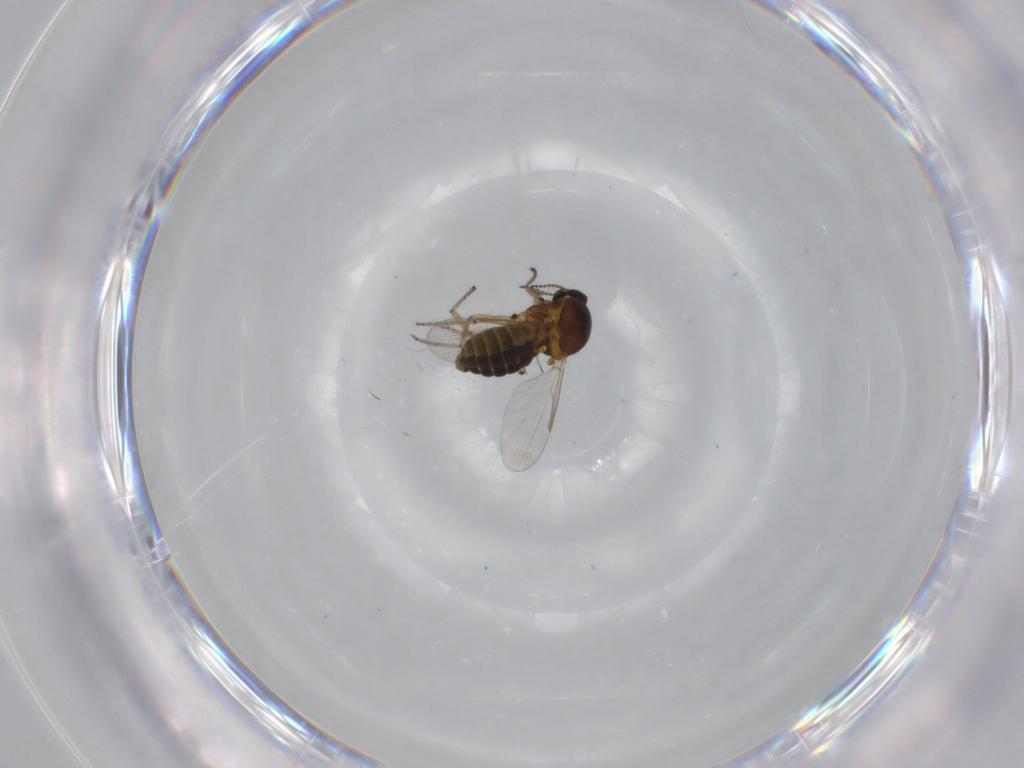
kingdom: Animalia
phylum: Arthropoda
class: Insecta
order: Diptera
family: Ceratopogonidae
